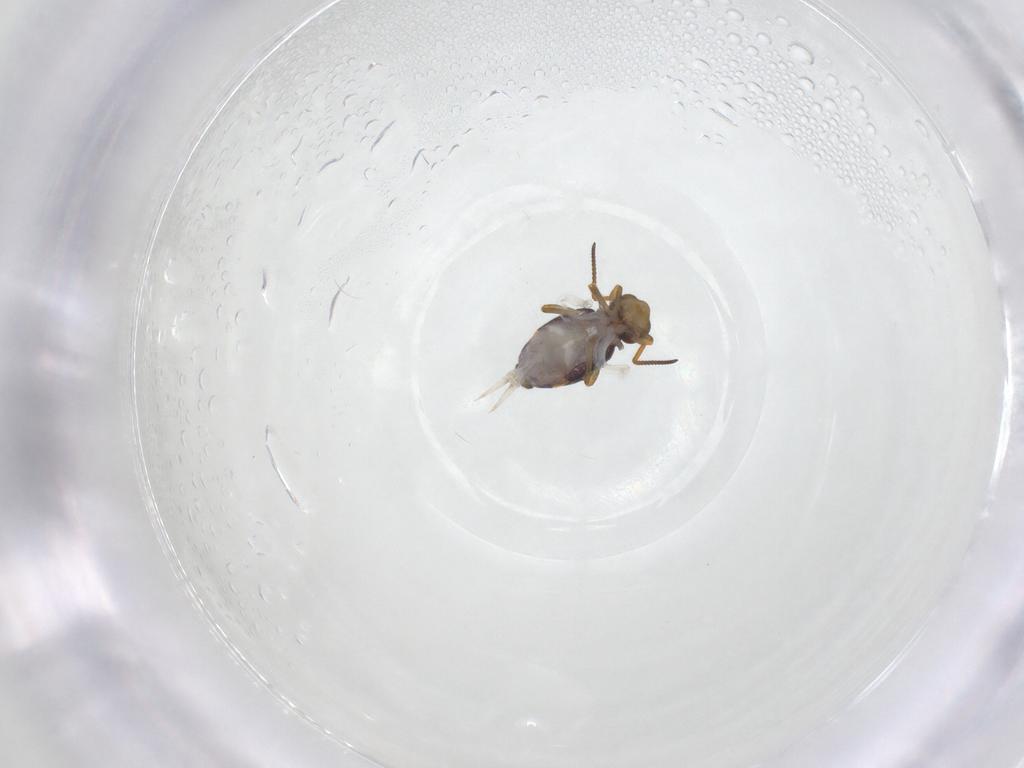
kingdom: Animalia
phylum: Arthropoda
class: Collembola
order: Symphypleona
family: Katiannidae
